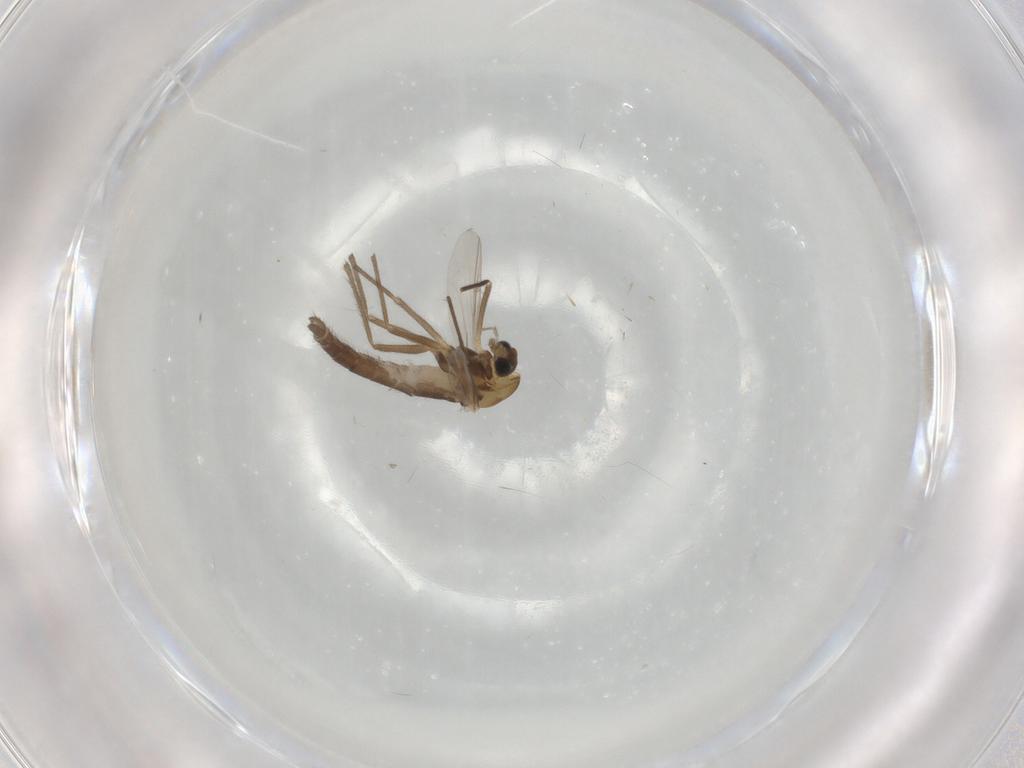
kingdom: Animalia
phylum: Arthropoda
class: Insecta
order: Diptera
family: Chironomidae
